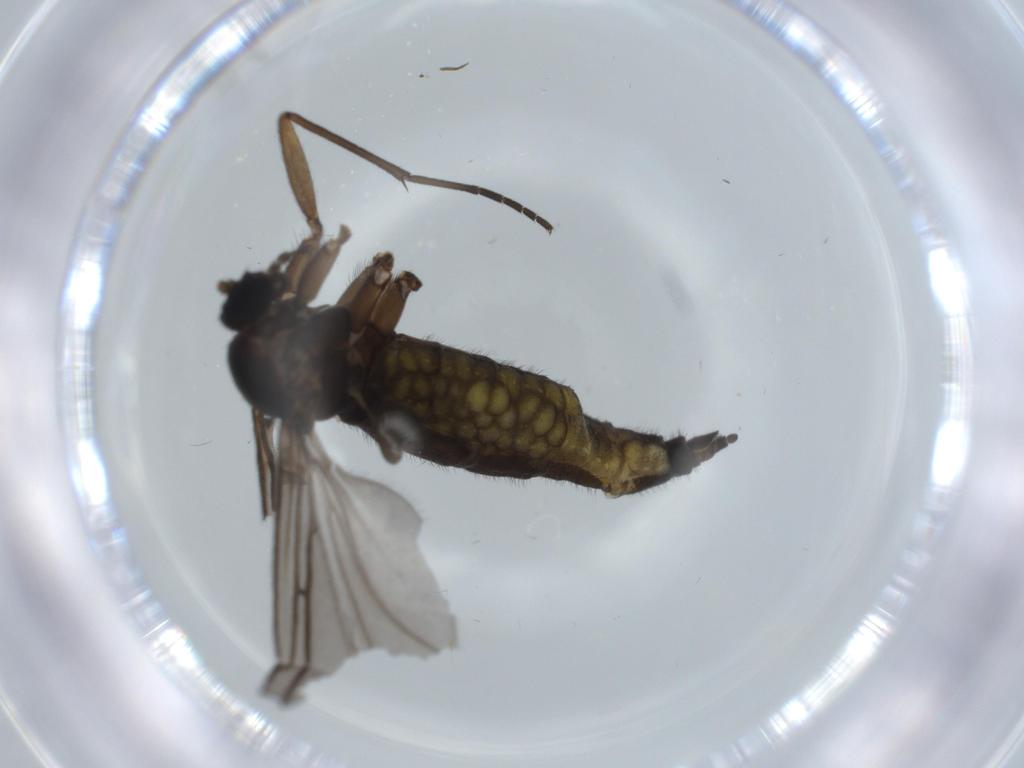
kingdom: Animalia
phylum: Arthropoda
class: Insecta
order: Diptera
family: Sciaridae
